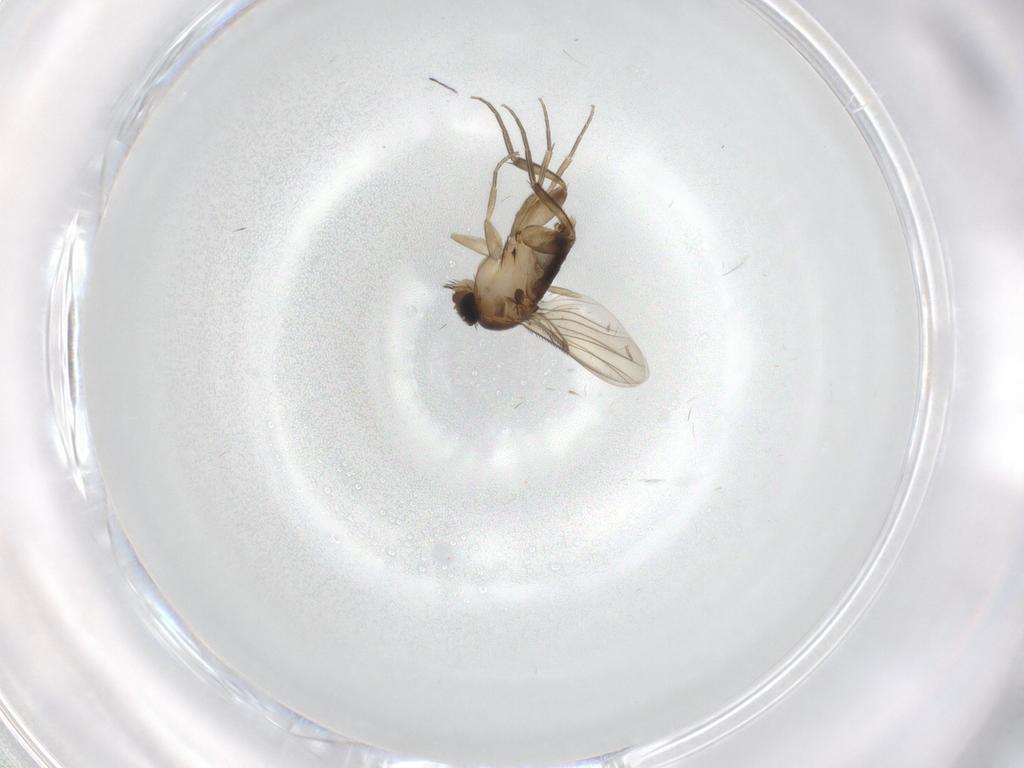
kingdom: Animalia
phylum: Arthropoda
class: Insecta
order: Diptera
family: Phoridae
